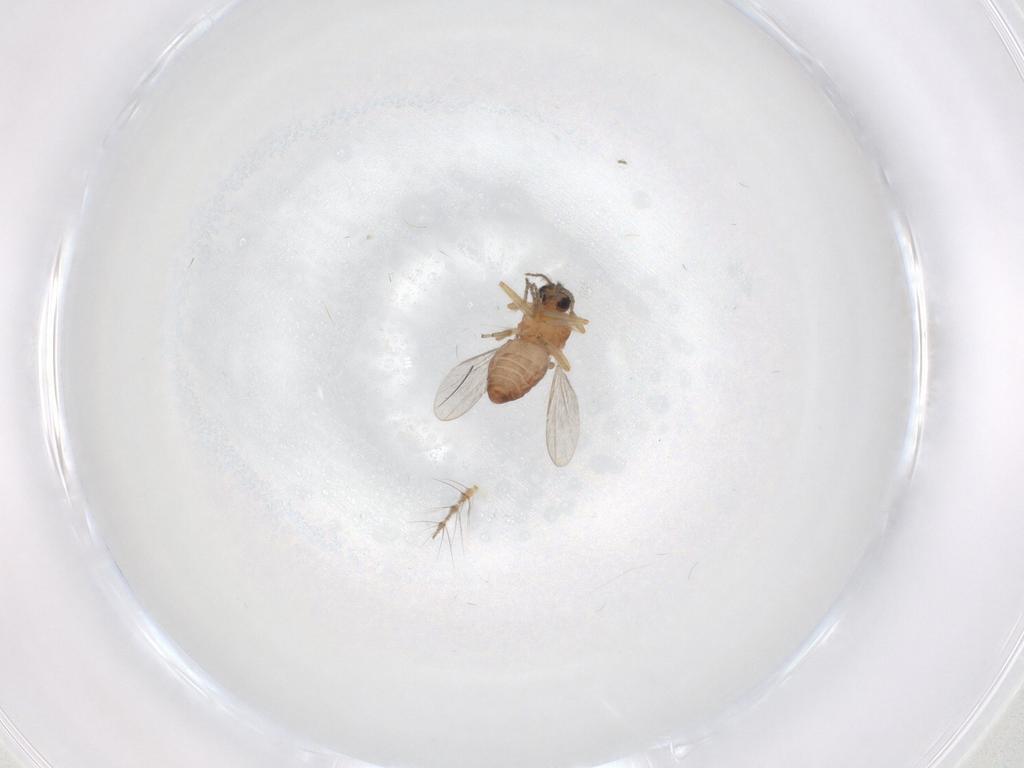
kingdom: Animalia
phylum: Arthropoda
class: Insecta
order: Diptera
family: Ceratopogonidae
